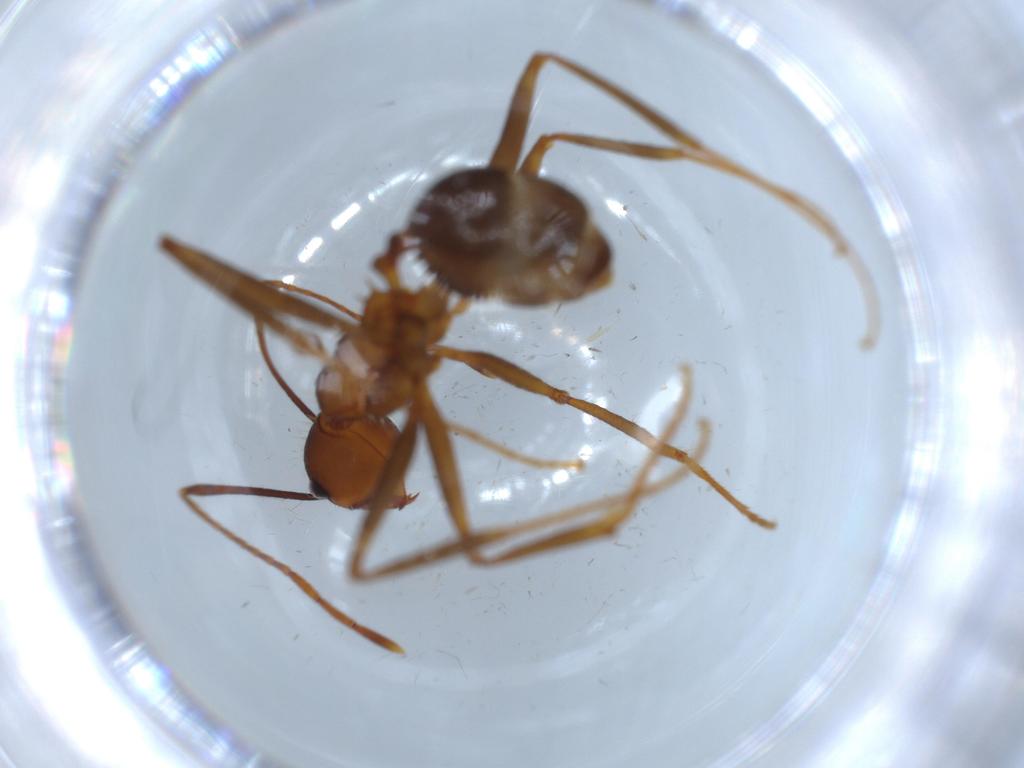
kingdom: Animalia
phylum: Arthropoda
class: Insecta
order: Hymenoptera
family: Formicidae
